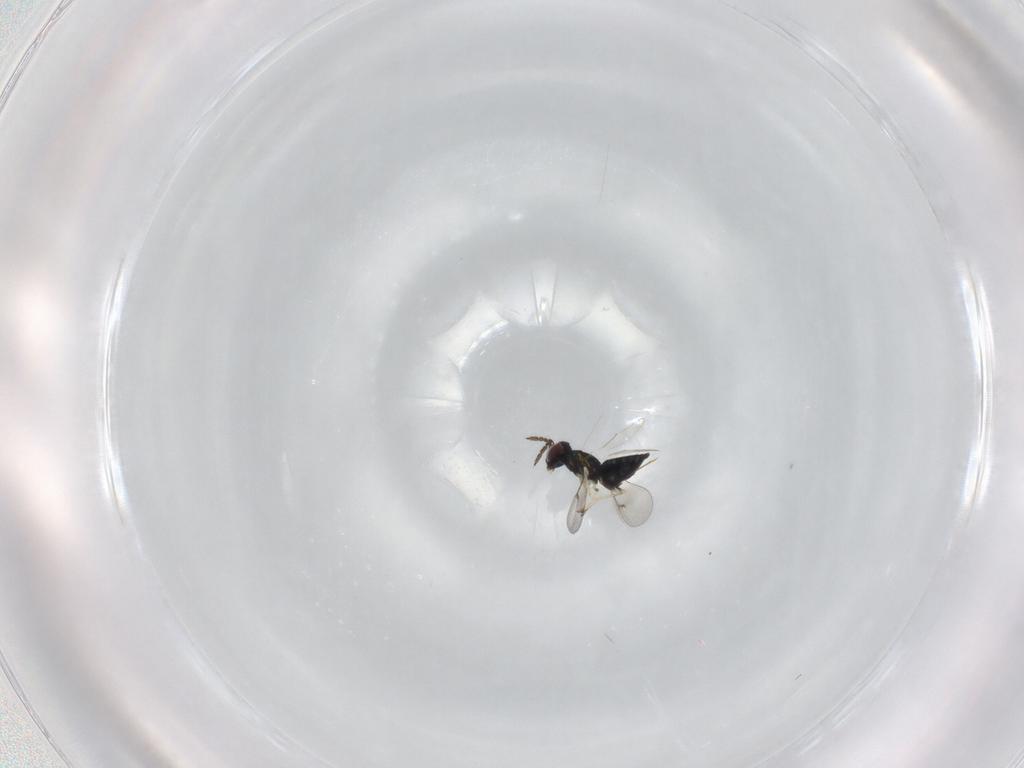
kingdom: Animalia
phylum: Arthropoda
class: Insecta
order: Hymenoptera
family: Eulophidae
